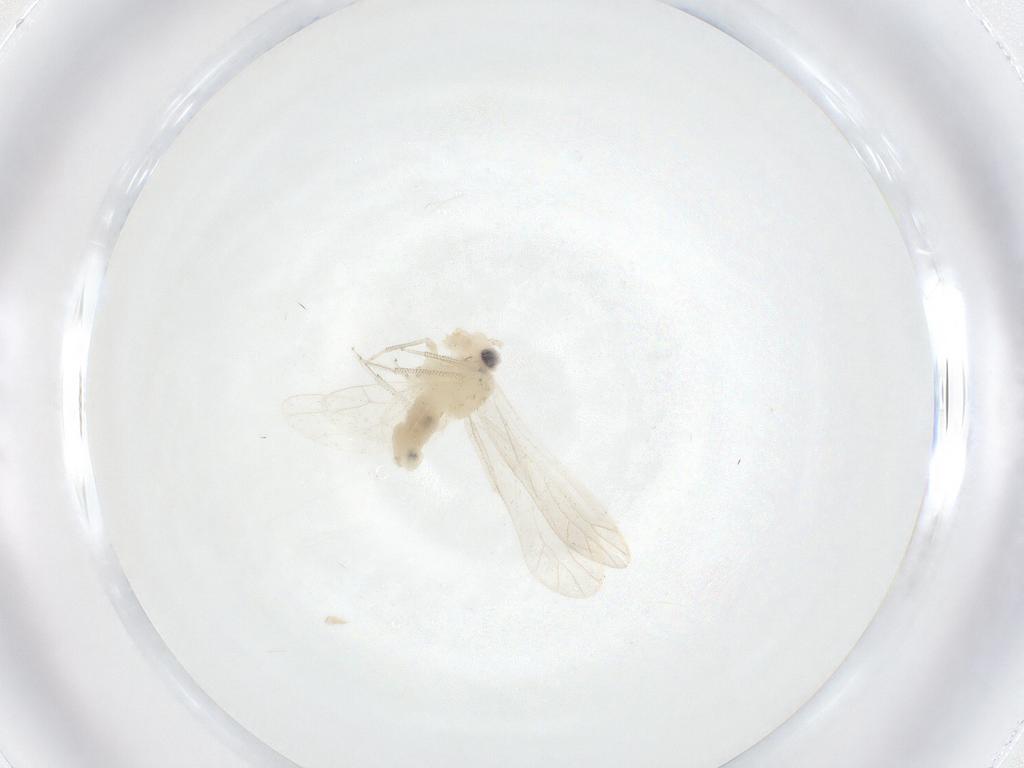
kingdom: Animalia
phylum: Arthropoda
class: Insecta
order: Psocodea
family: Caeciliusidae
